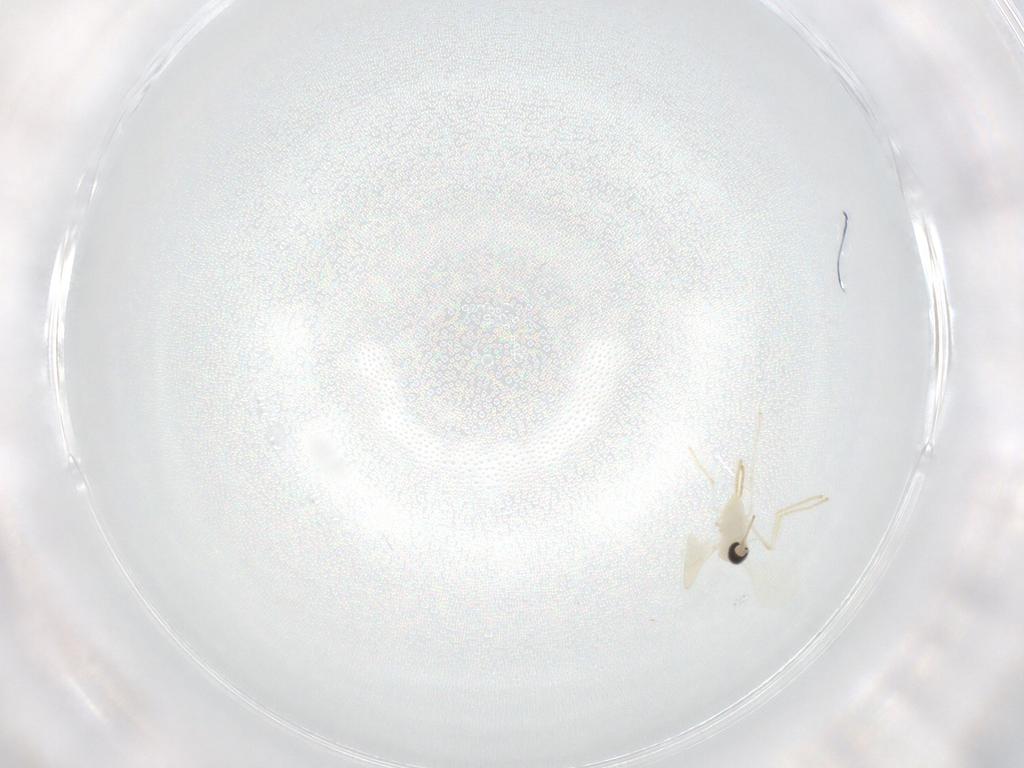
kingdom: Animalia
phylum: Arthropoda
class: Insecta
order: Diptera
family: Cecidomyiidae
